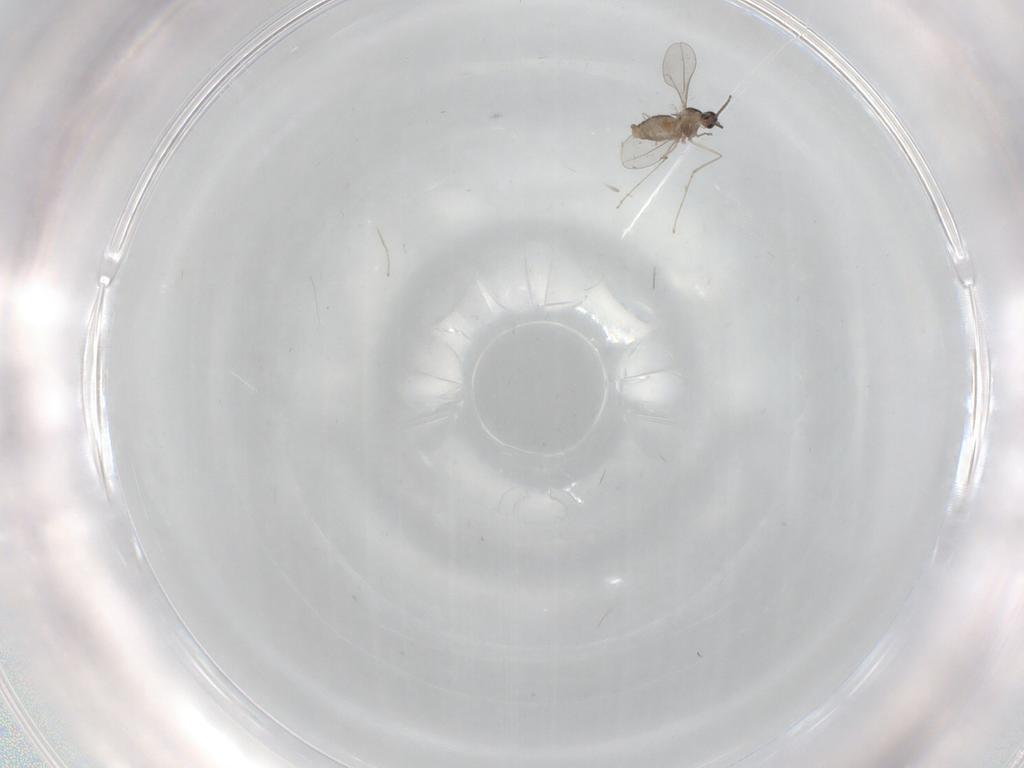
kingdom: Animalia
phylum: Arthropoda
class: Insecta
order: Diptera
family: Cecidomyiidae
